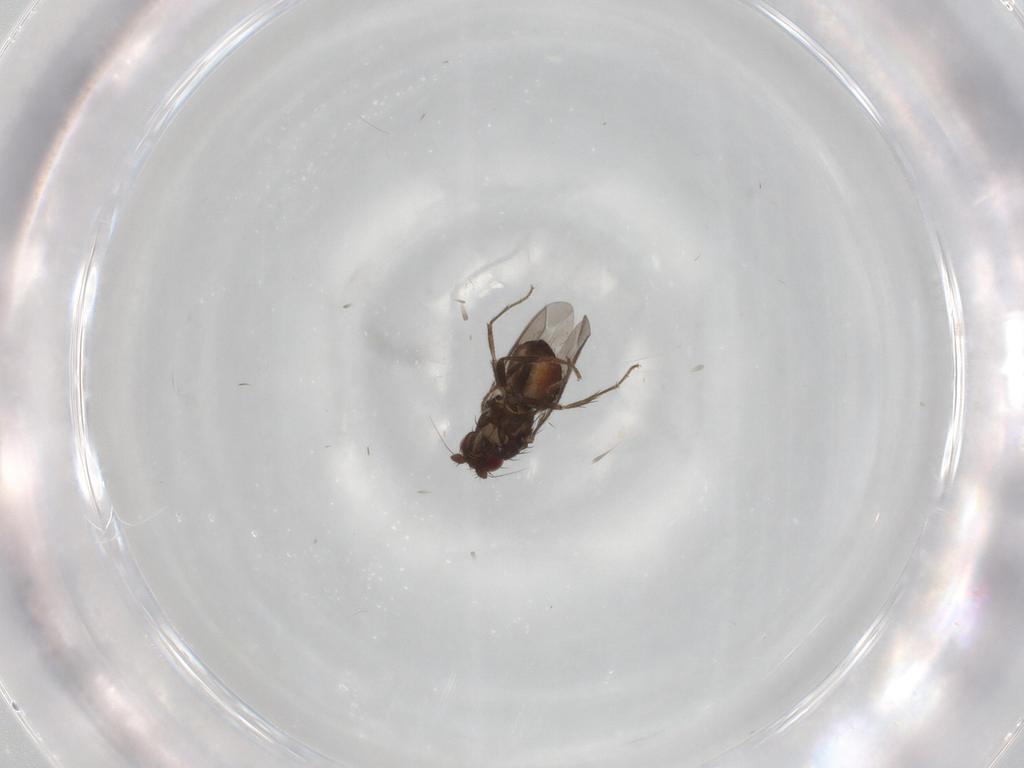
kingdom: Animalia
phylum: Arthropoda
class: Insecta
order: Diptera
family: Sphaeroceridae
